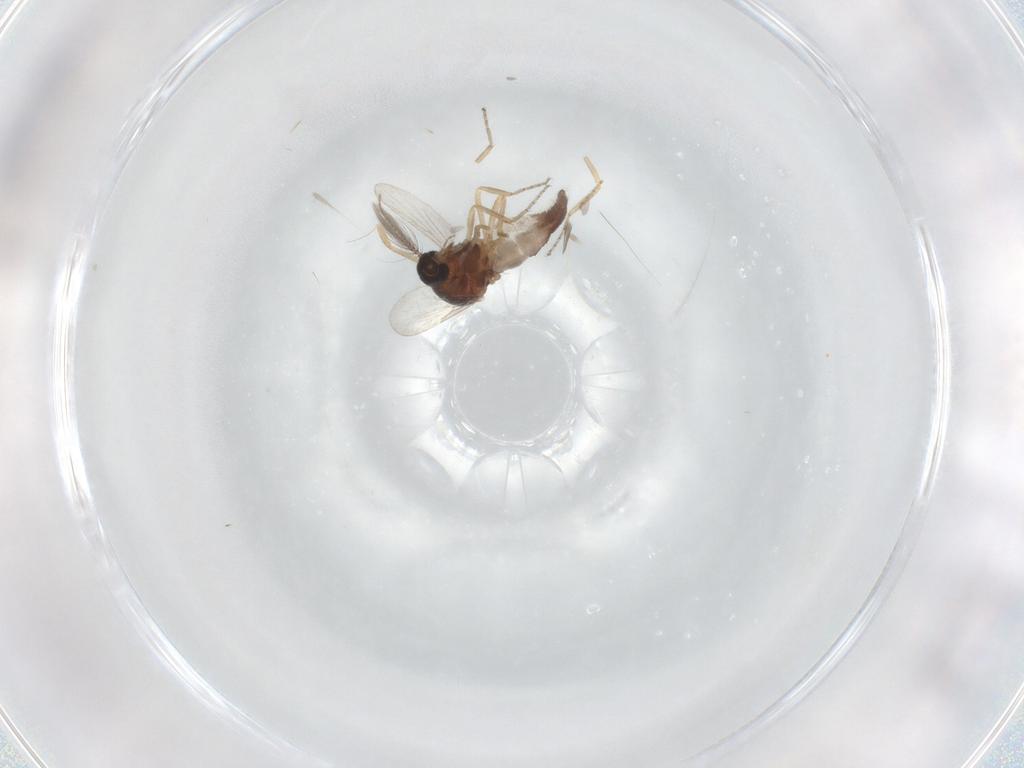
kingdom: Animalia
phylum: Arthropoda
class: Insecta
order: Diptera
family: Ceratopogonidae
